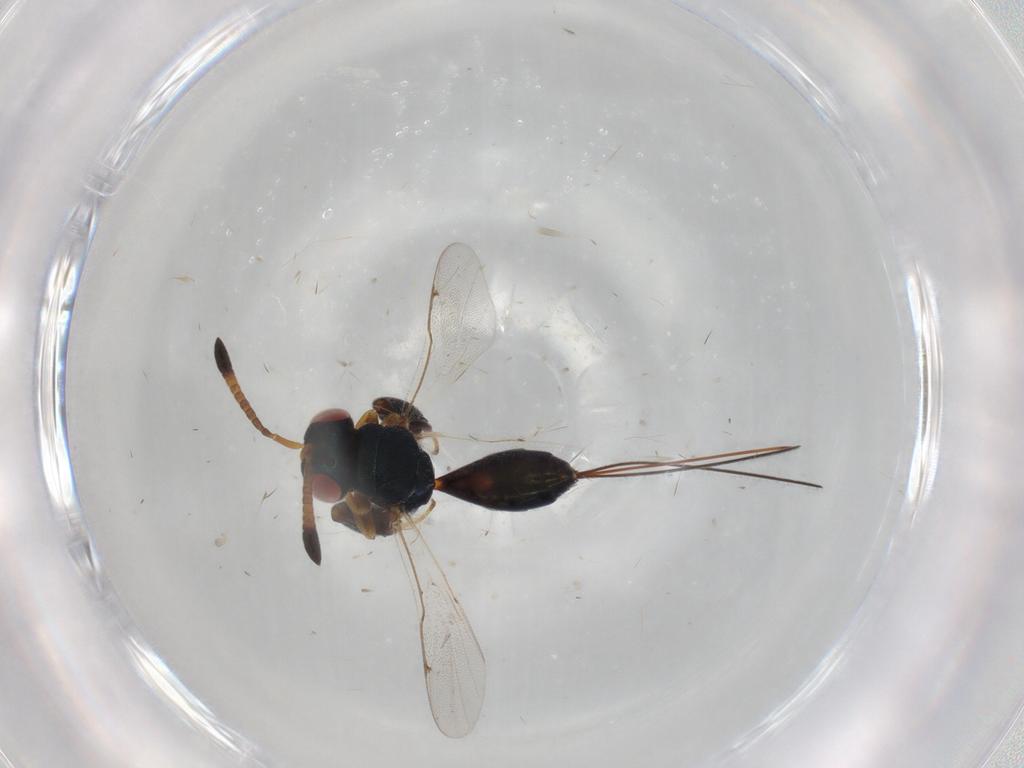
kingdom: Animalia
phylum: Arthropoda
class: Insecta
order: Hymenoptera
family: Torymidae
